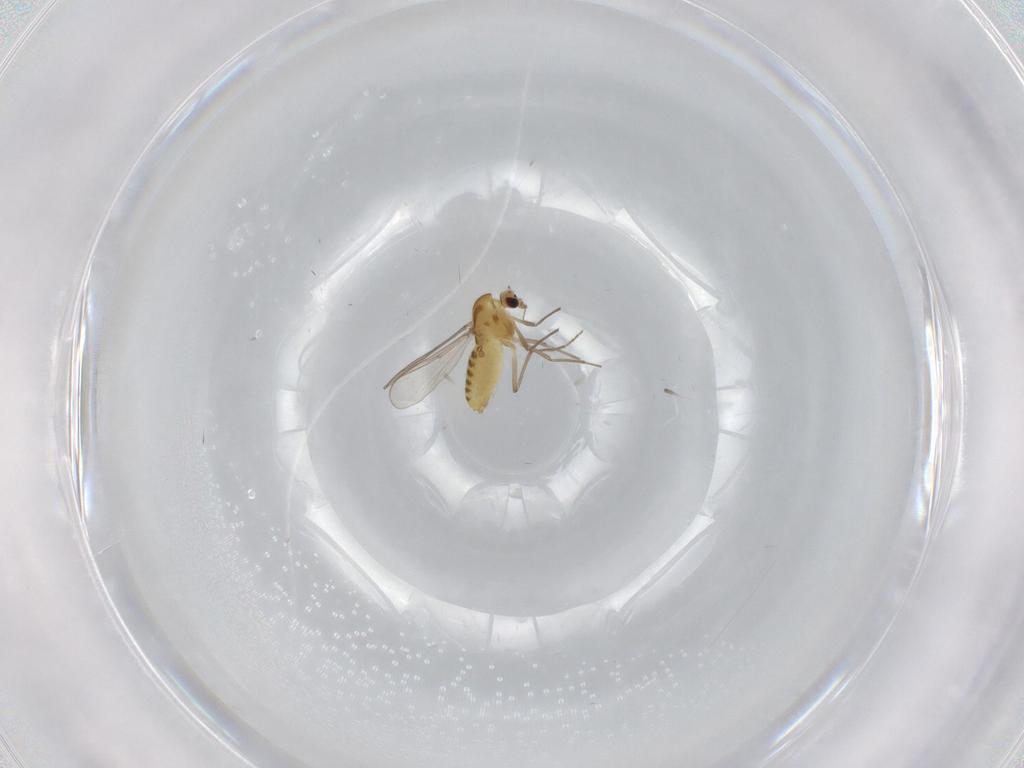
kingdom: Animalia
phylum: Arthropoda
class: Insecta
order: Diptera
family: Chironomidae
